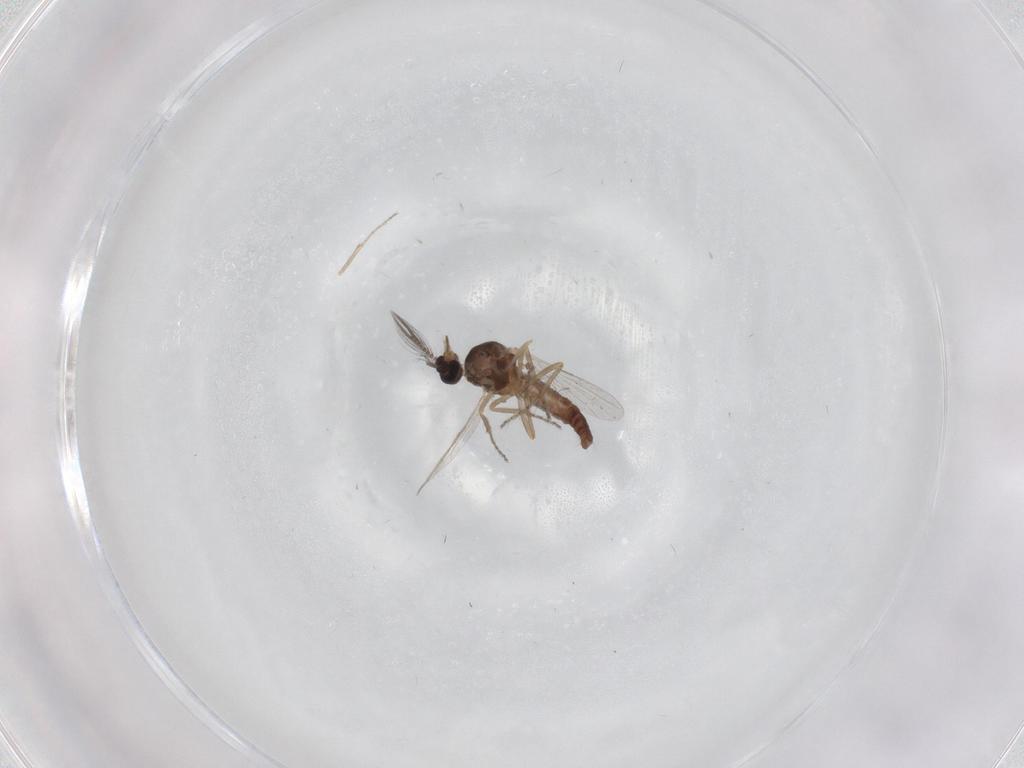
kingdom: Animalia
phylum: Arthropoda
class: Insecta
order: Diptera
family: Ceratopogonidae
